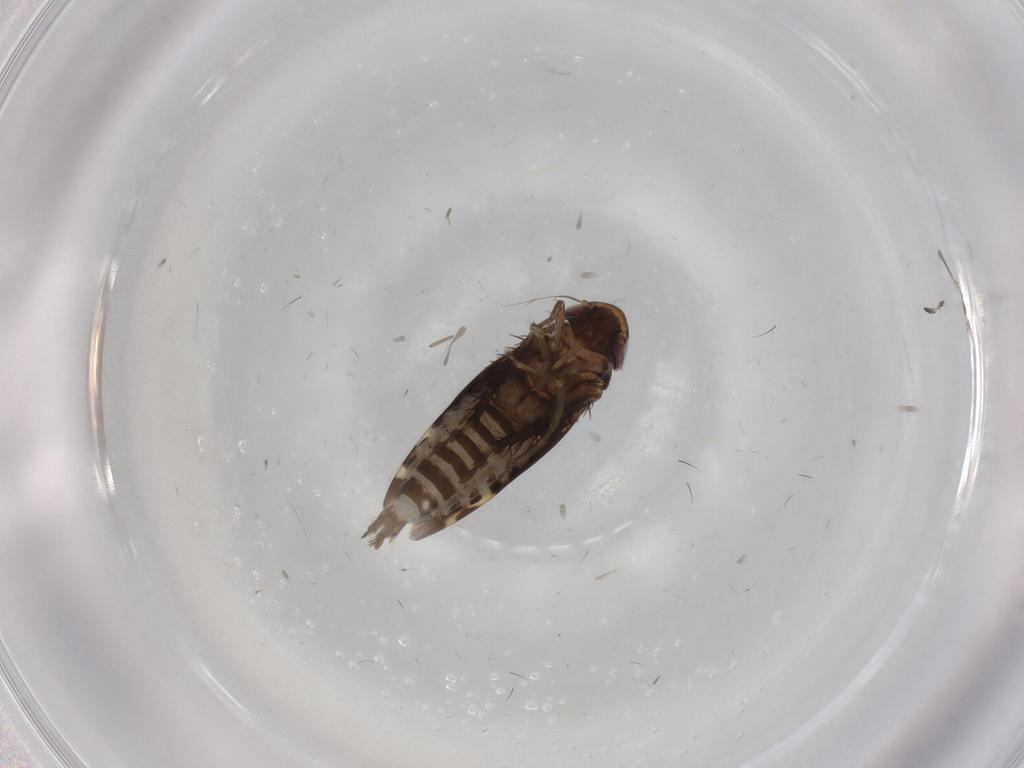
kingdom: Animalia
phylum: Arthropoda
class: Insecta
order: Hemiptera
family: Cicadellidae
